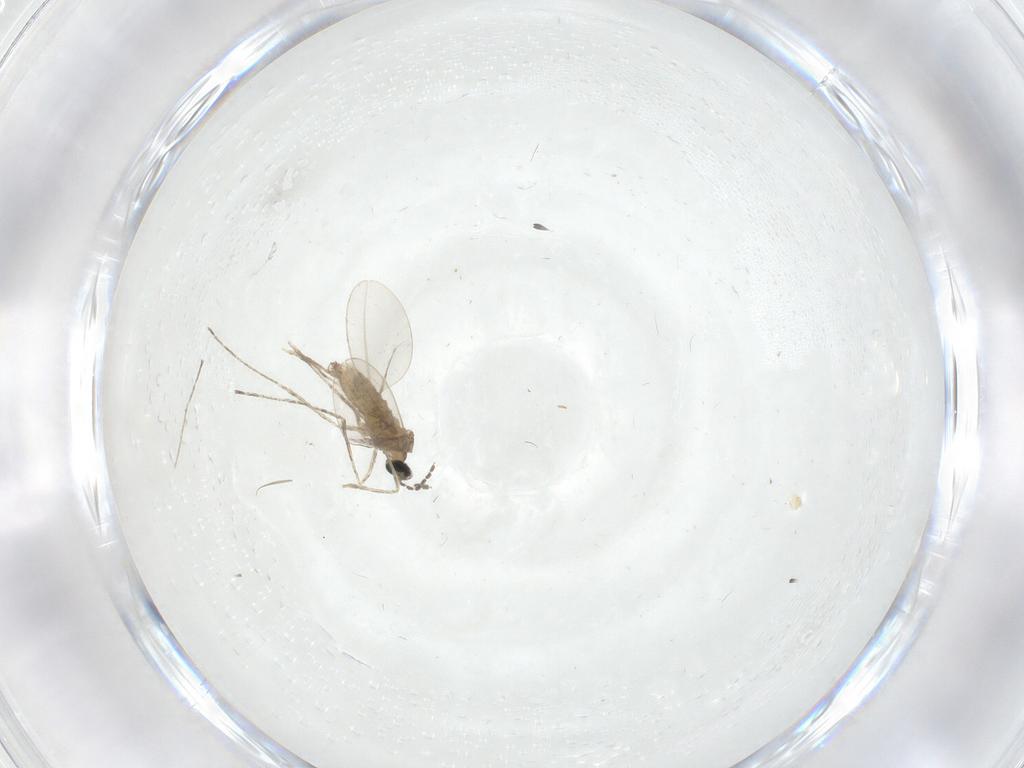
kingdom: Animalia
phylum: Arthropoda
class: Insecta
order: Diptera
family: Cecidomyiidae
